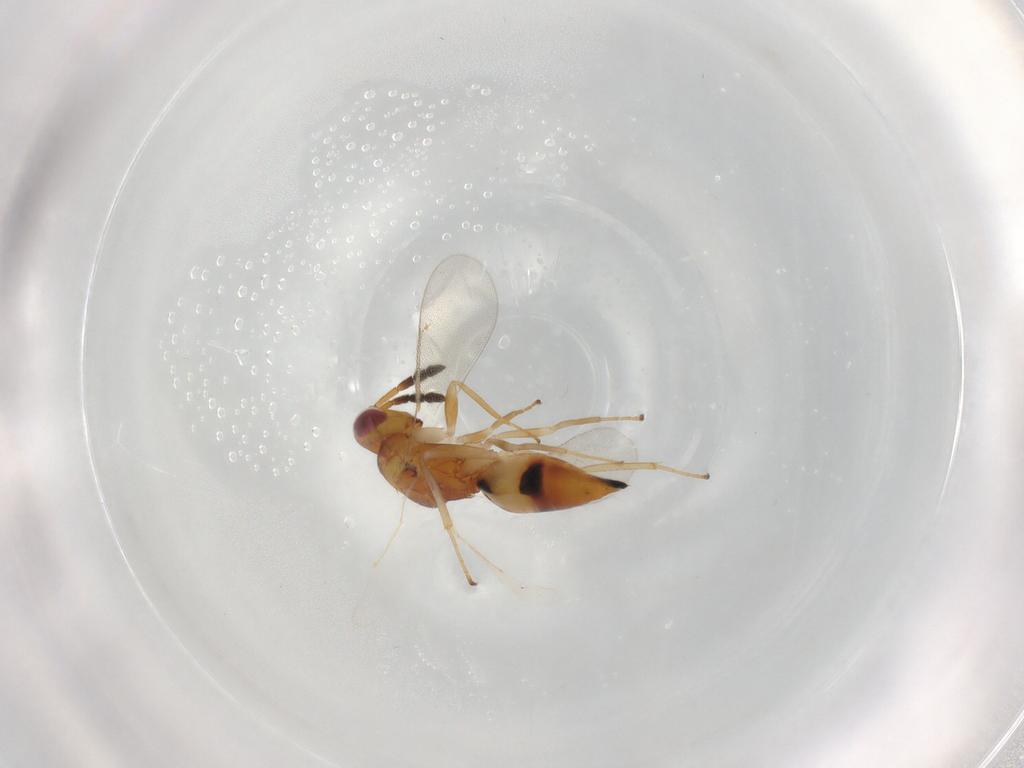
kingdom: Animalia
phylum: Arthropoda
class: Insecta
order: Hymenoptera
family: Eulophidae
